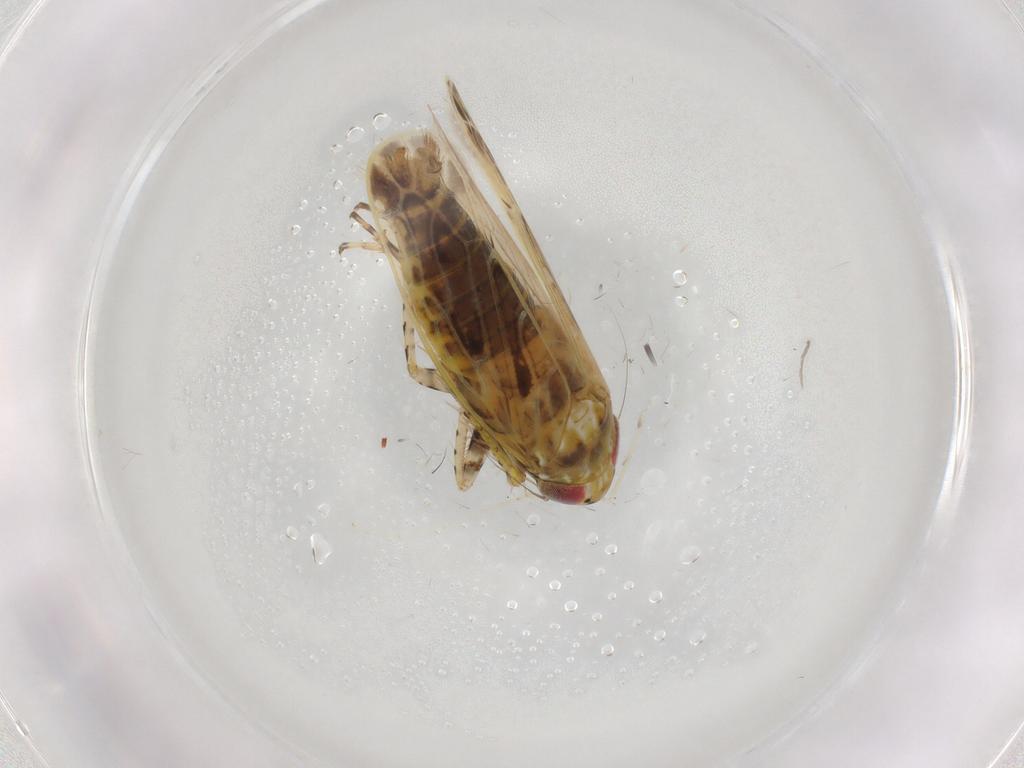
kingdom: Animalia
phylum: Arthropoda
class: Insecta
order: Hemiptera
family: Cicadellidae
